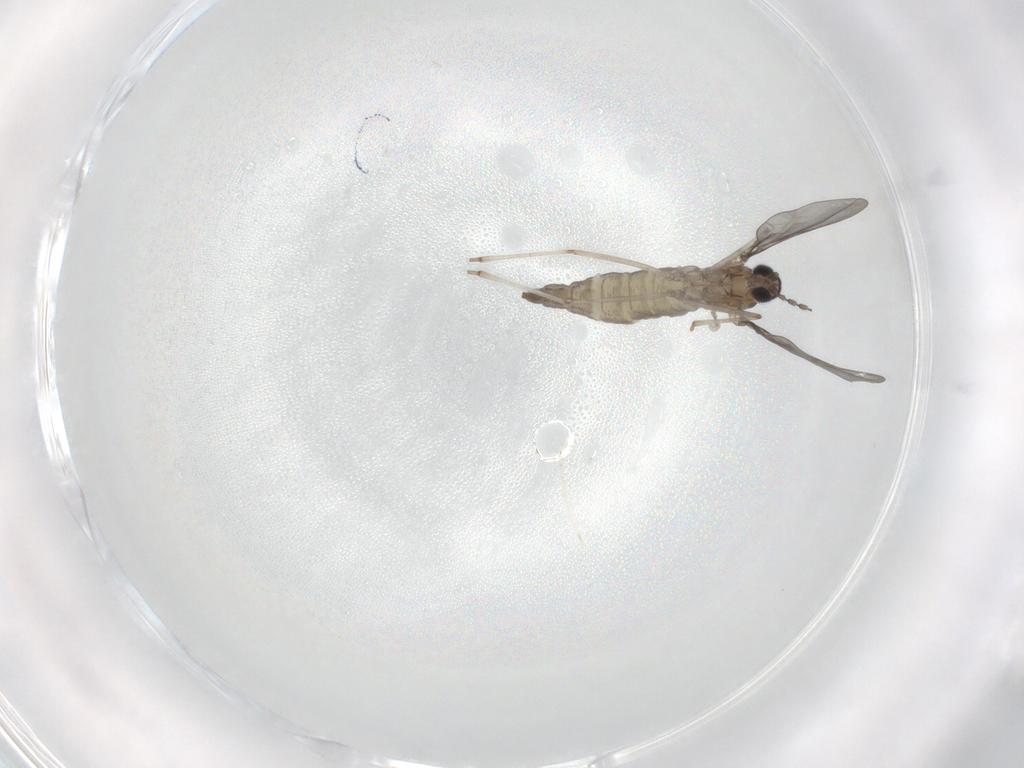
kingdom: Animalia
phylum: Arthropoda
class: Insecta
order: Diptera
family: Cecidomyiidae
